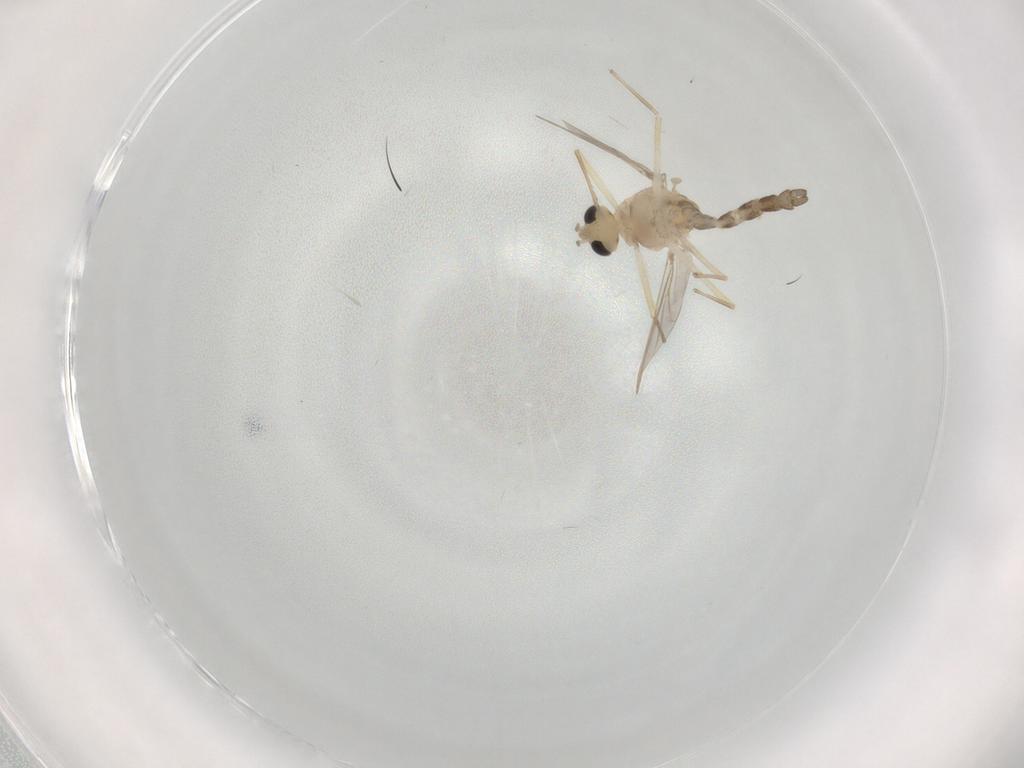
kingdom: Animalia
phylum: Arthropoda
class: Insecta
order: Diptera
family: Chironomidae
